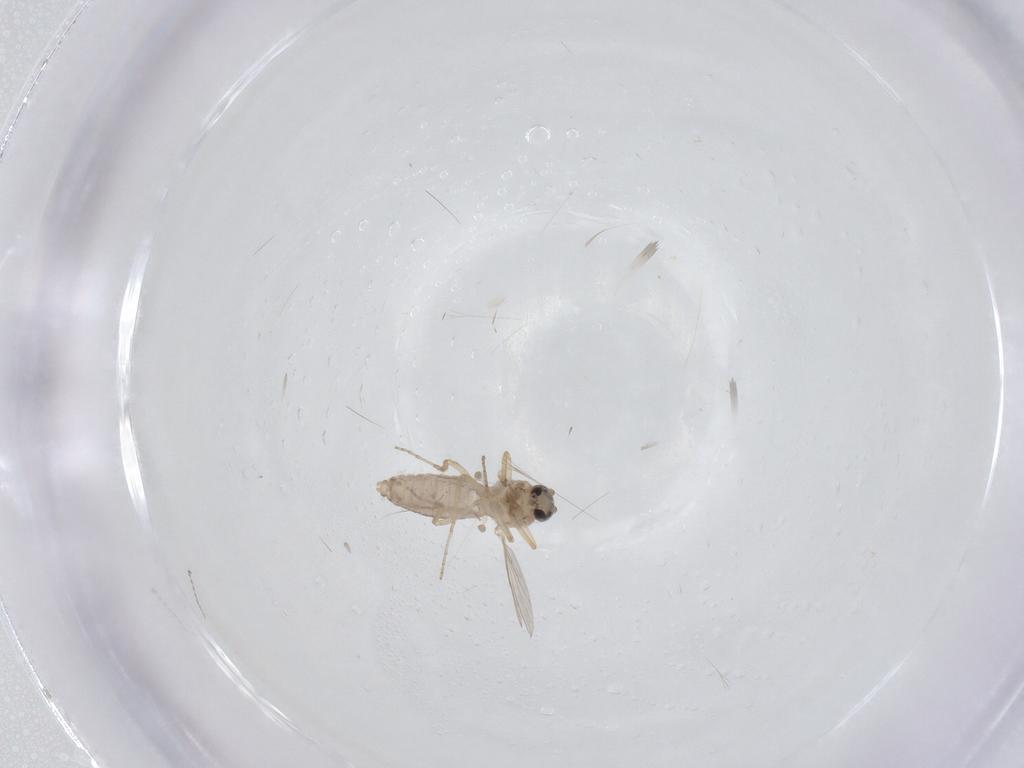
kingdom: Animalia
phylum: Arthropoda
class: Insecta
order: Diptera
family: Ceratopogonidae
